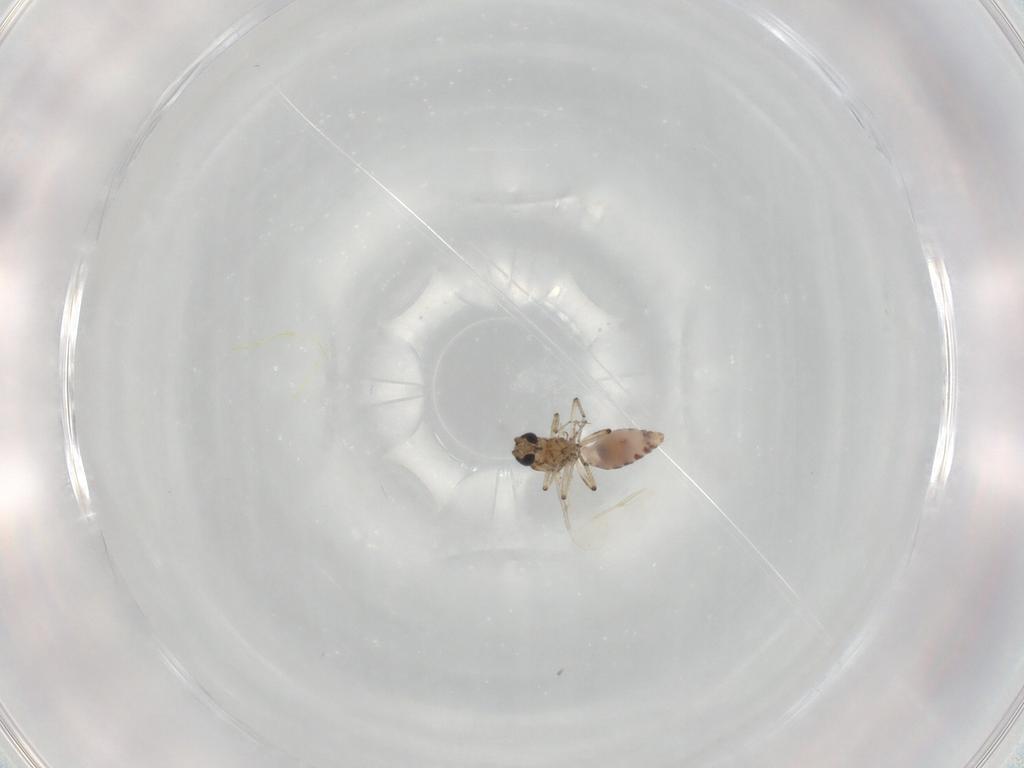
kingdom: Animalia
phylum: Arthropoda
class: Insecta
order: Diptera
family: Ceratopogonidae
